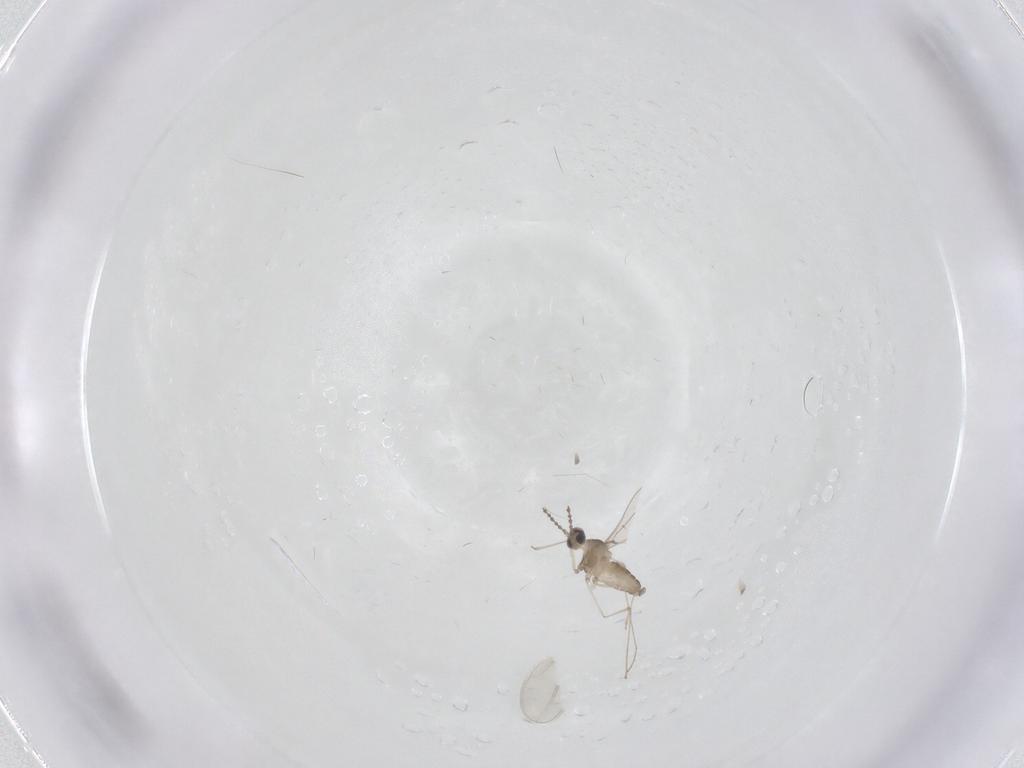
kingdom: Animalia
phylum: Arthropoda
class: Insecta
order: Diptera
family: Cecidomyiidae
